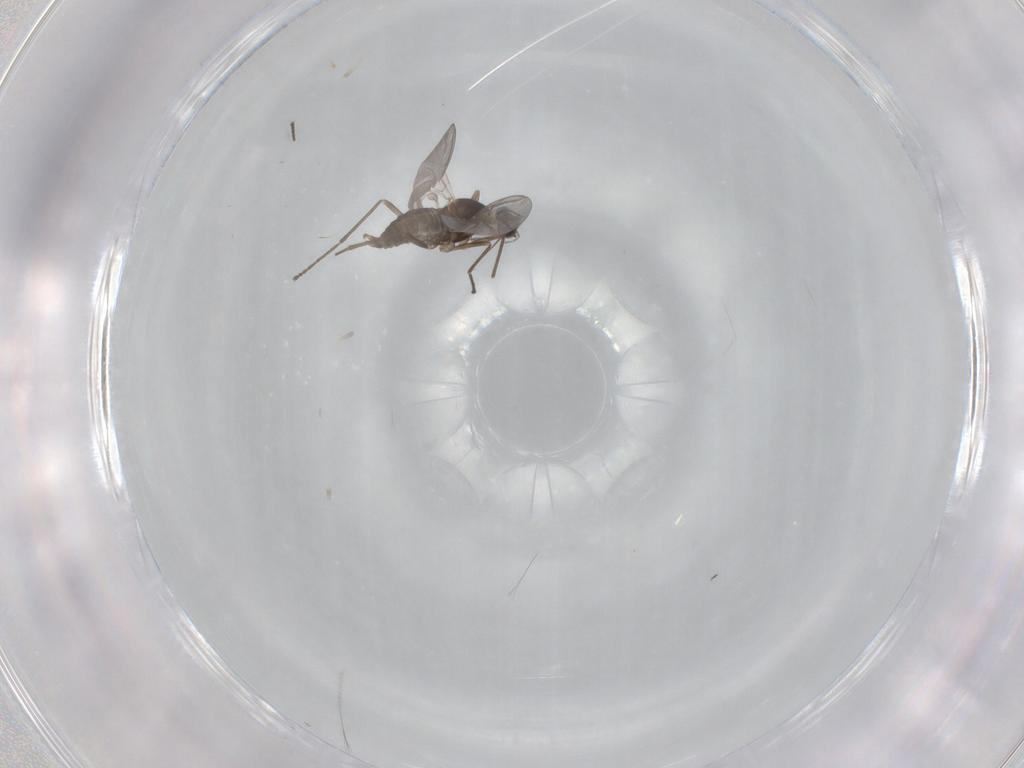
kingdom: Animalia
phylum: Arthropoda
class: Insecta
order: Diptera
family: Cecidomyiidae
